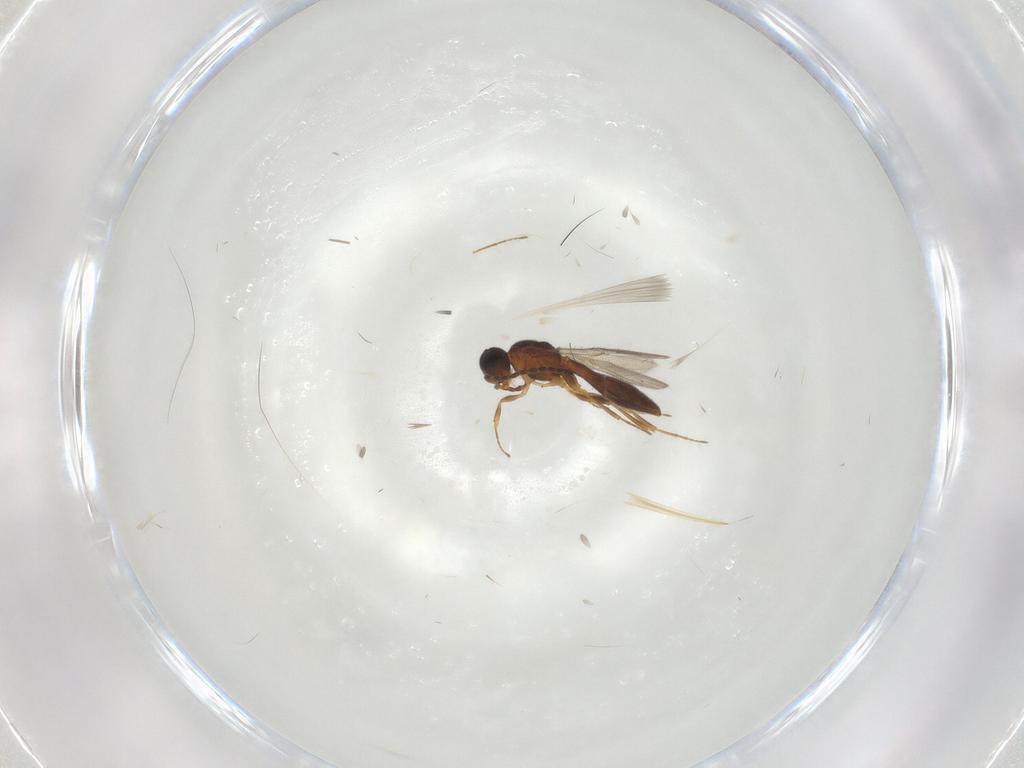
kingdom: Animalia
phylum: Arthropoda
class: Insecta
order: Hymenoptera
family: Scelionidae
